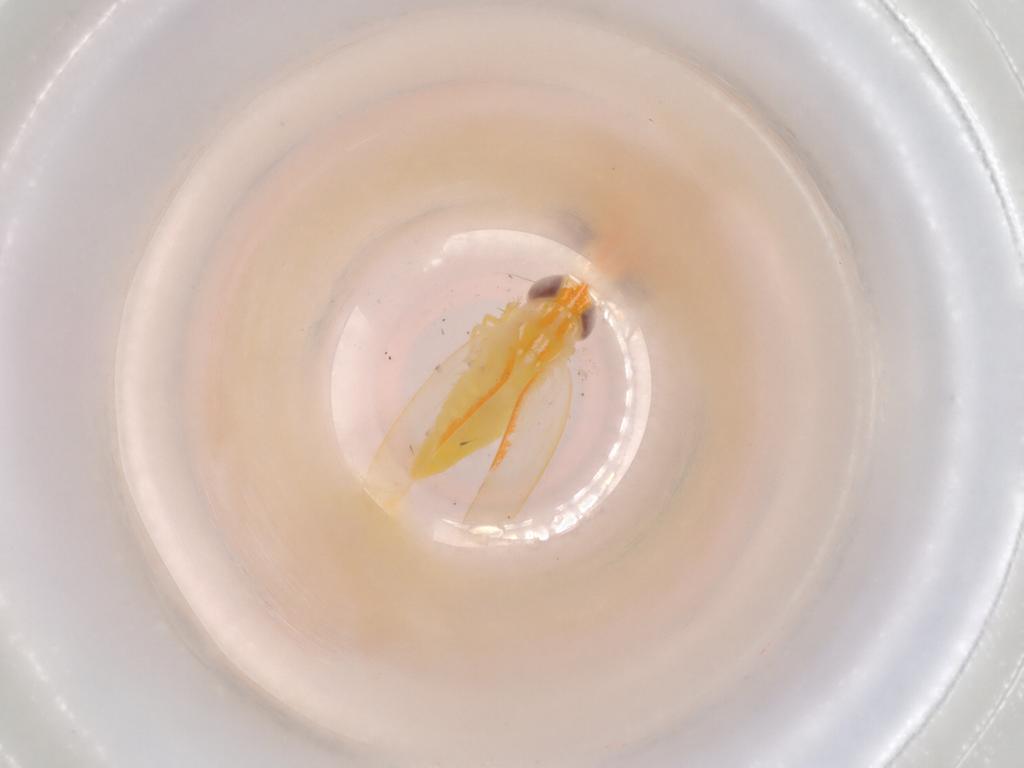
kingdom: Animalia
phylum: Arthropoda
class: Insecta
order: Hemiptera
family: Cicadellidae
